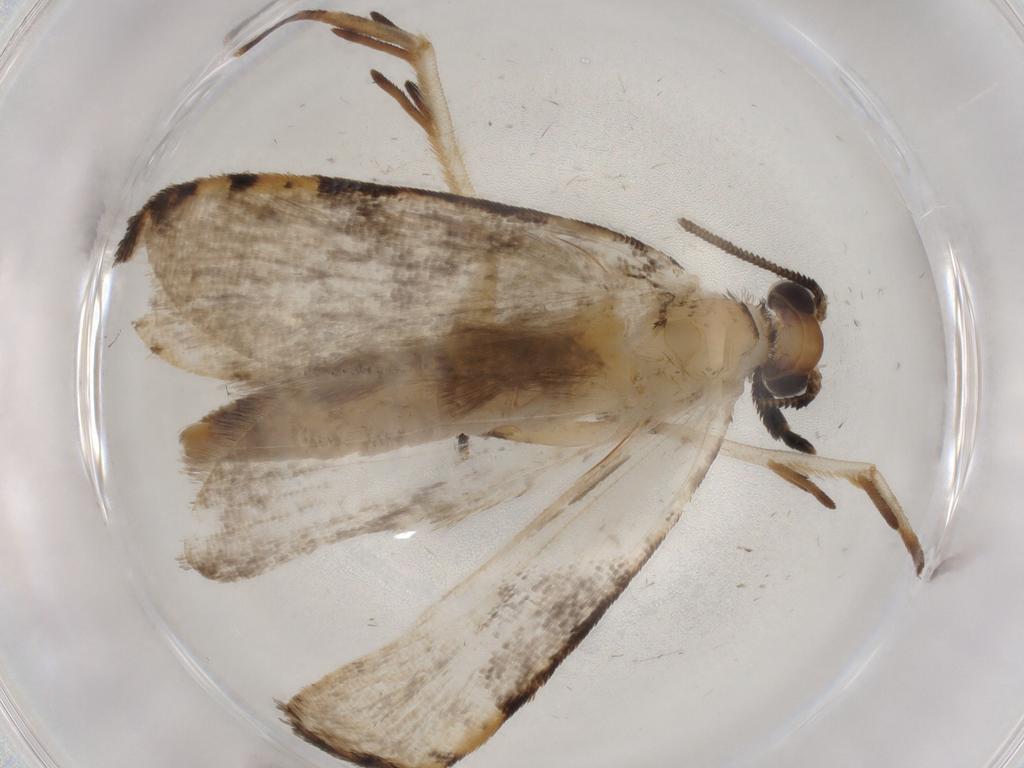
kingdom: Animalia
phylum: Arthropoda
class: Insecta
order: Lepidoptera
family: Tineidae
